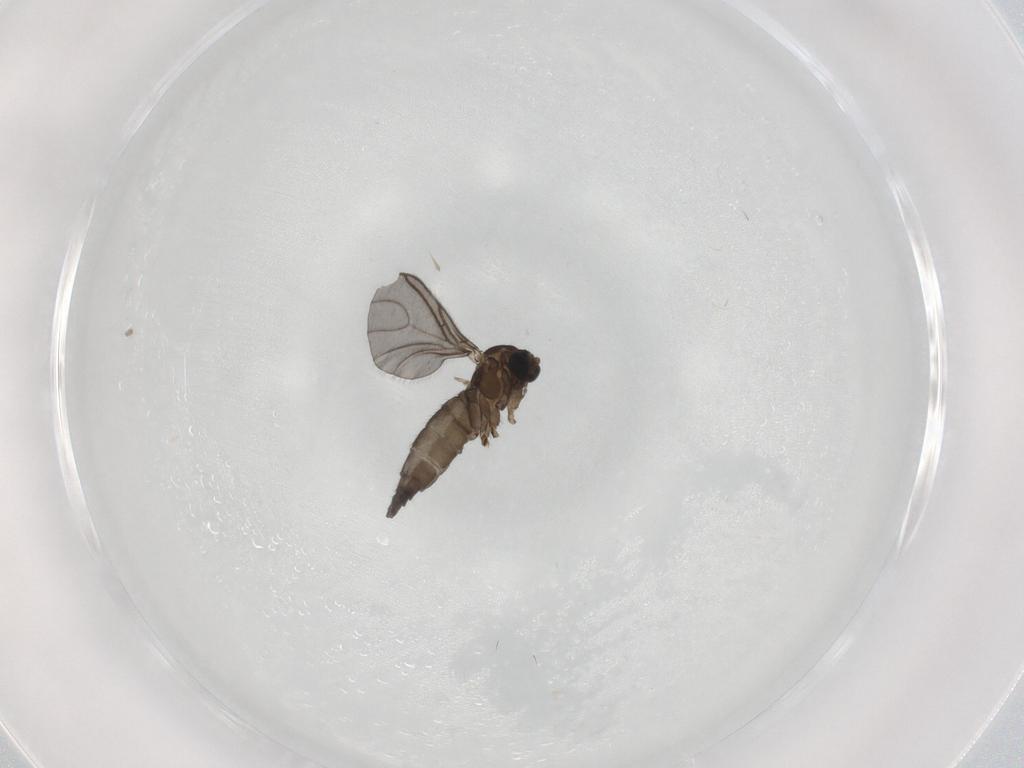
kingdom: Animalia
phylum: Arthropoda
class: Insecta
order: Diptera
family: Sciaridae
